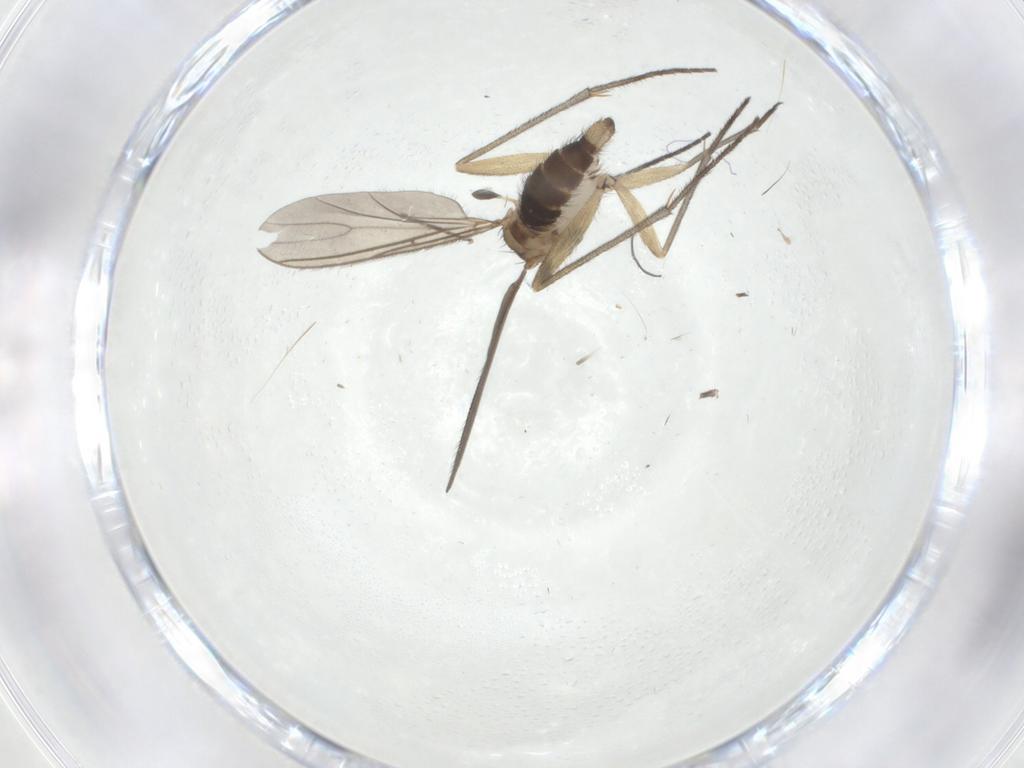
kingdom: Animalia
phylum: Arthropoda
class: Insecta
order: Diptera
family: Sciaridae
